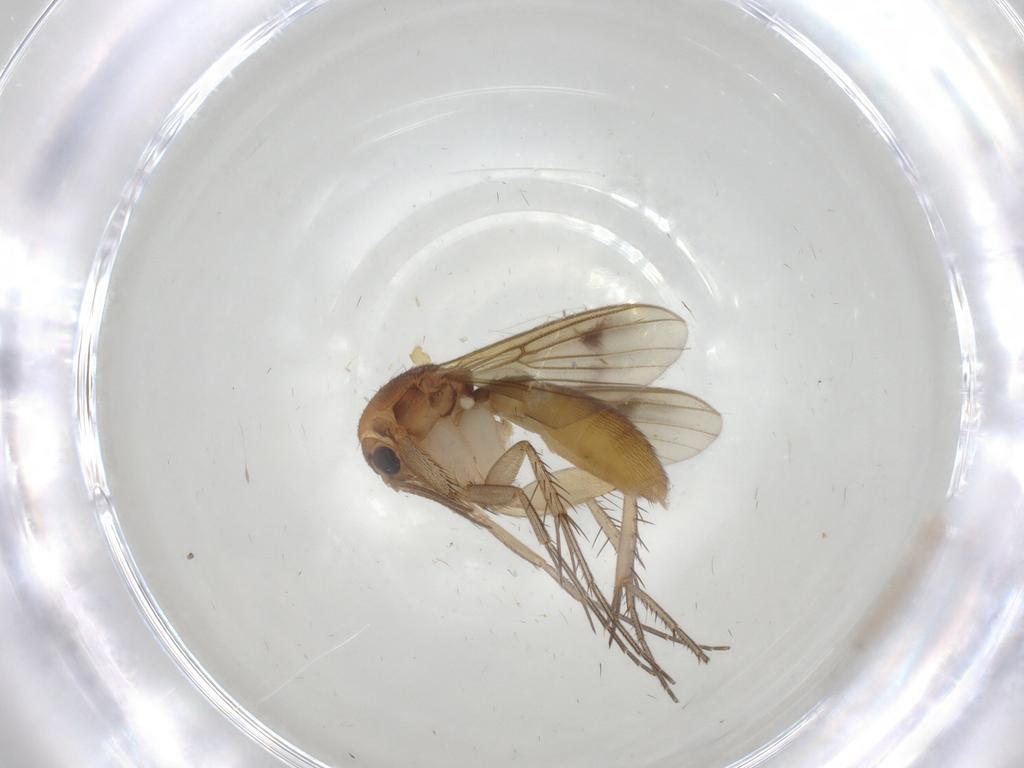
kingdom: Animalia
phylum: Arthropoda
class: Insecta
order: Diptera
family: Mycetophilidae
